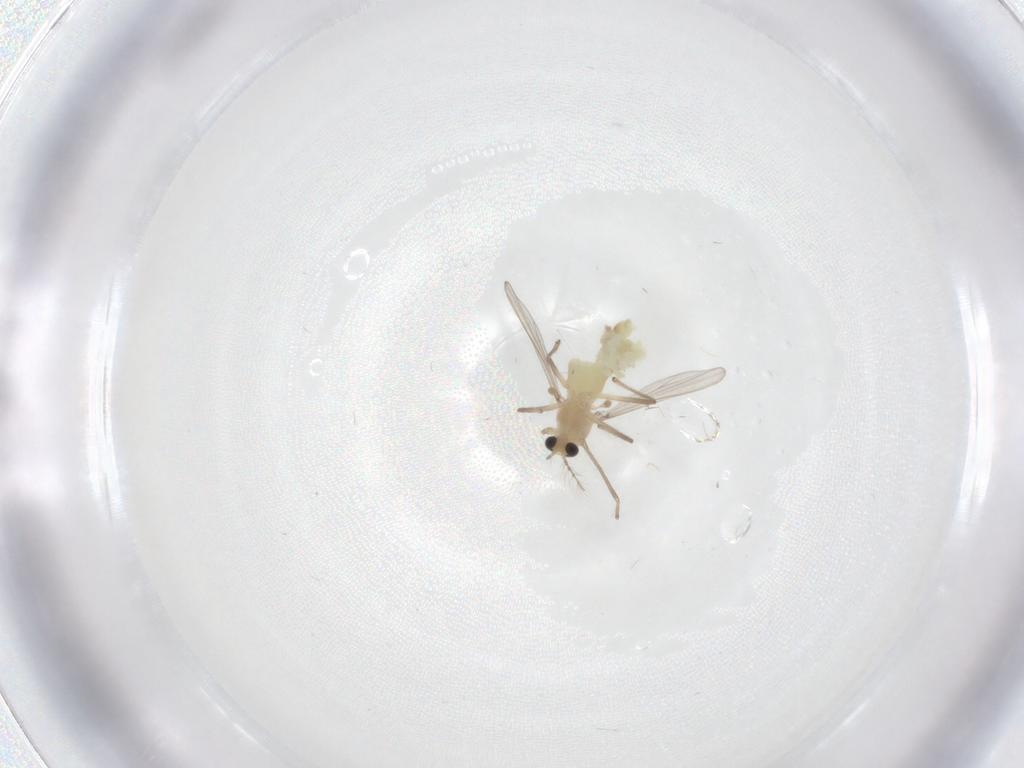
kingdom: Animalia
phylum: Arthropoda
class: Insecta
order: Diptera
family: Chironomidae
